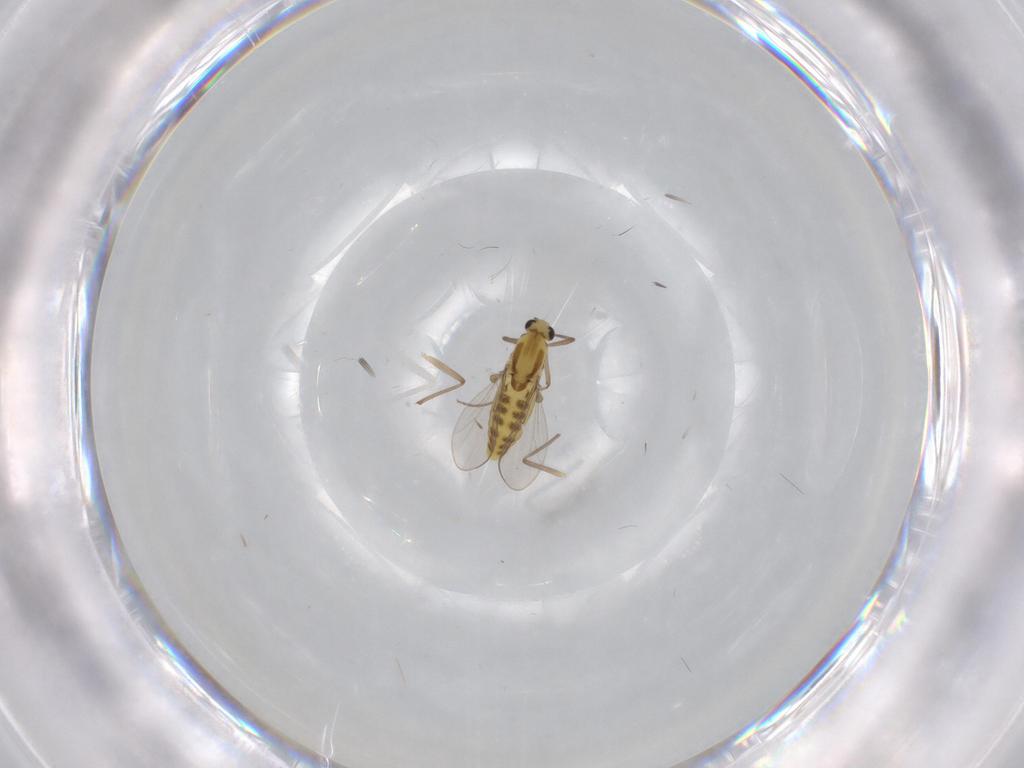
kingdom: Animalia
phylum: Arthropoda
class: Insecta
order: Diptera
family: Chironomidae
